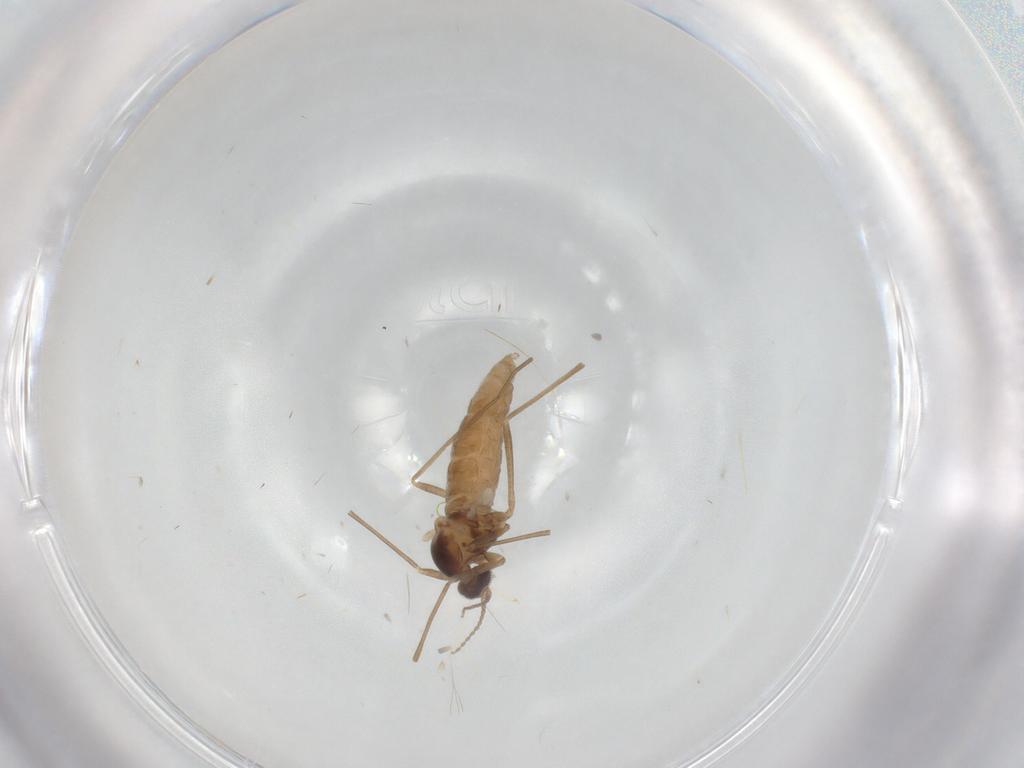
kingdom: Animalia
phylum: Arthropoda
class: Insecta
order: Diptera
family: Cecidomyiidae
